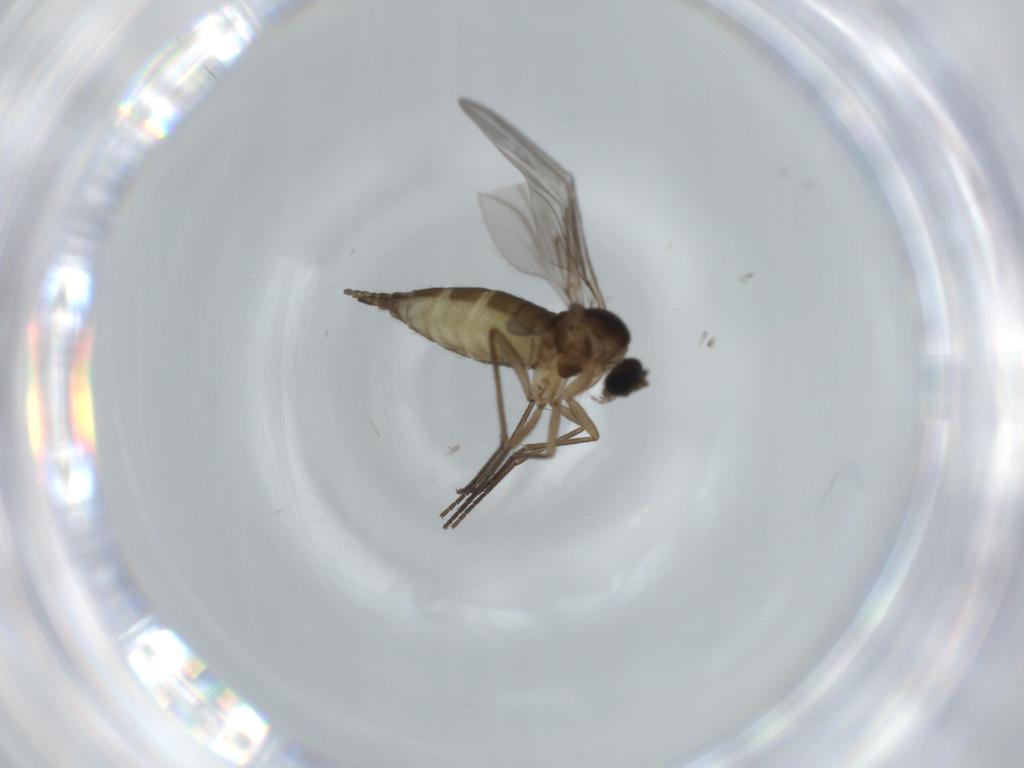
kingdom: Animalia
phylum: Arthropoda
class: Insecta
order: Diptera
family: Sciaridae
